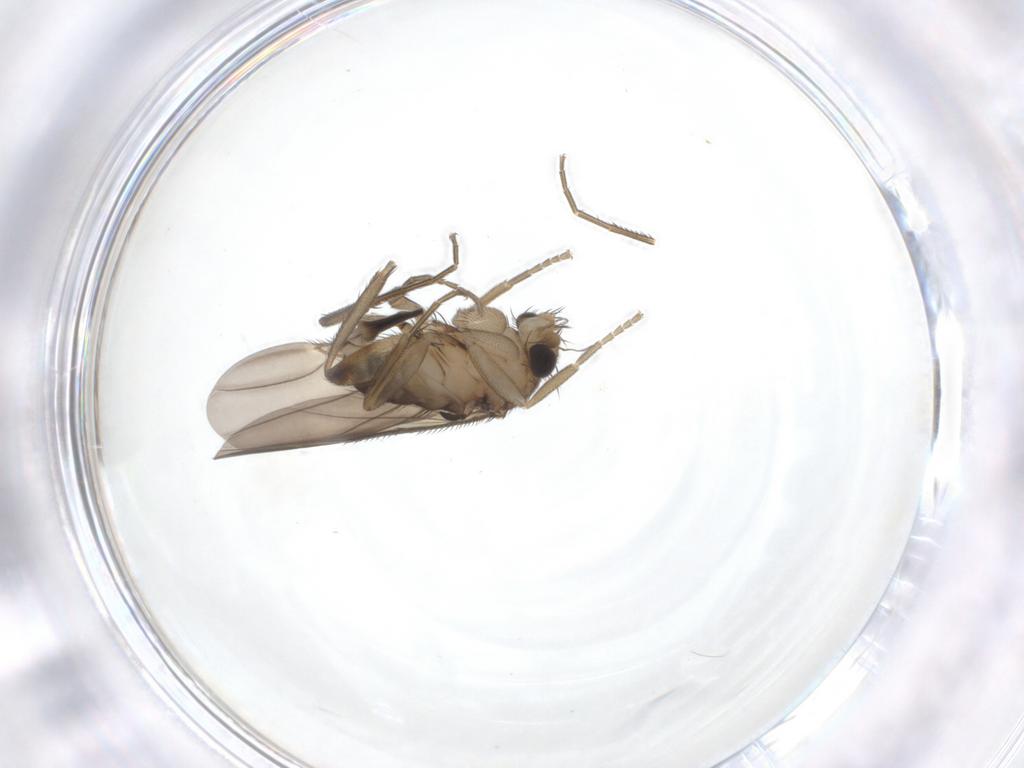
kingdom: Animalia
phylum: Arthropoda
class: Insecta
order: Diptera
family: Phoridae
